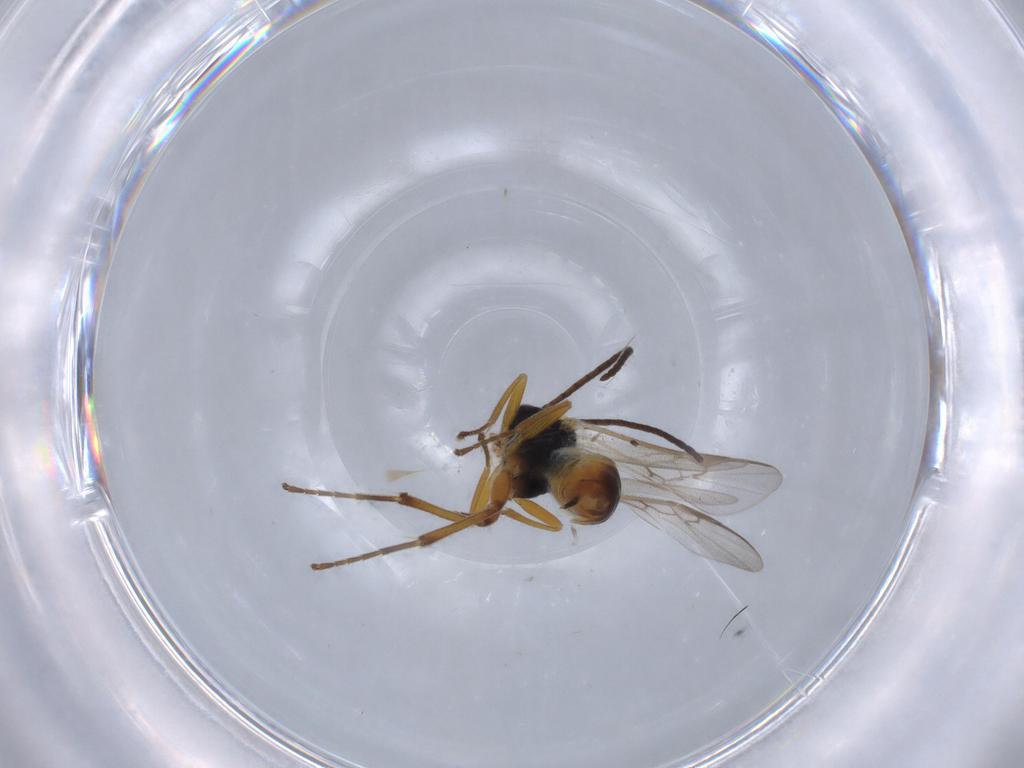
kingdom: Animalia
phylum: Arthropoda
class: Insecta
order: Hymenoptera
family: Braconidae
